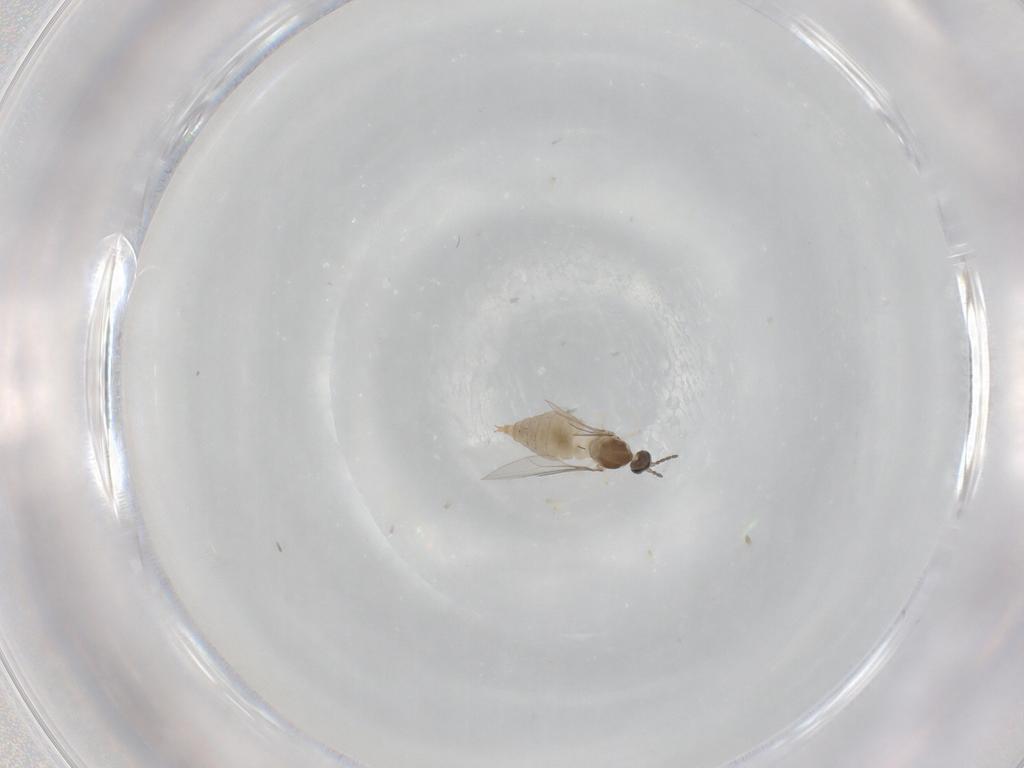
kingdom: Animalia
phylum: Arthropoda
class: Insecta
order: Diptera
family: Cecidomyiidae
